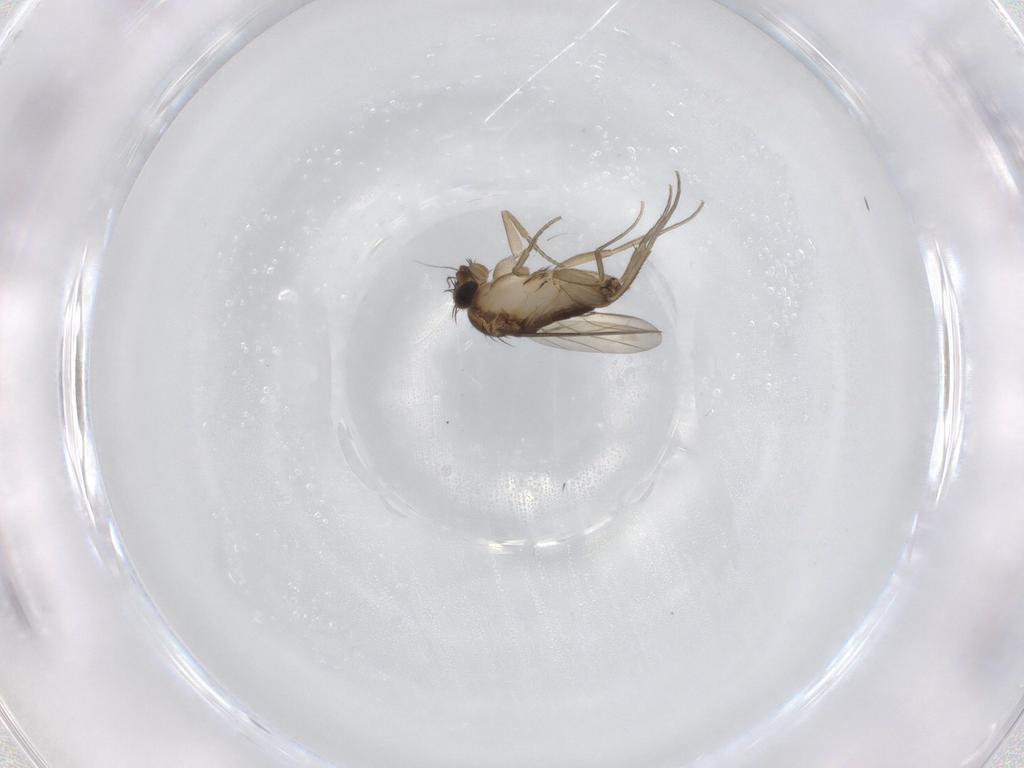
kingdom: Animalia
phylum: Arthropoda
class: Insecta
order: Diptera
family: Phoridae
